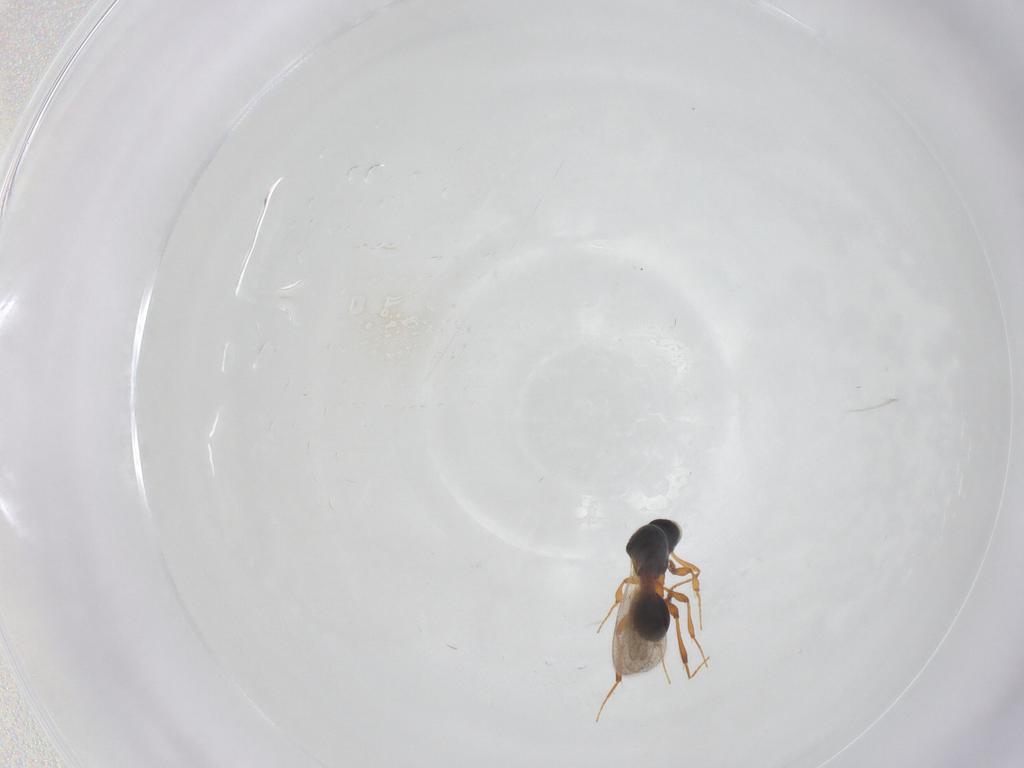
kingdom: Animalia
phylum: Arthropoda
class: Insecta
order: Hymenoptera
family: Platygastridae
